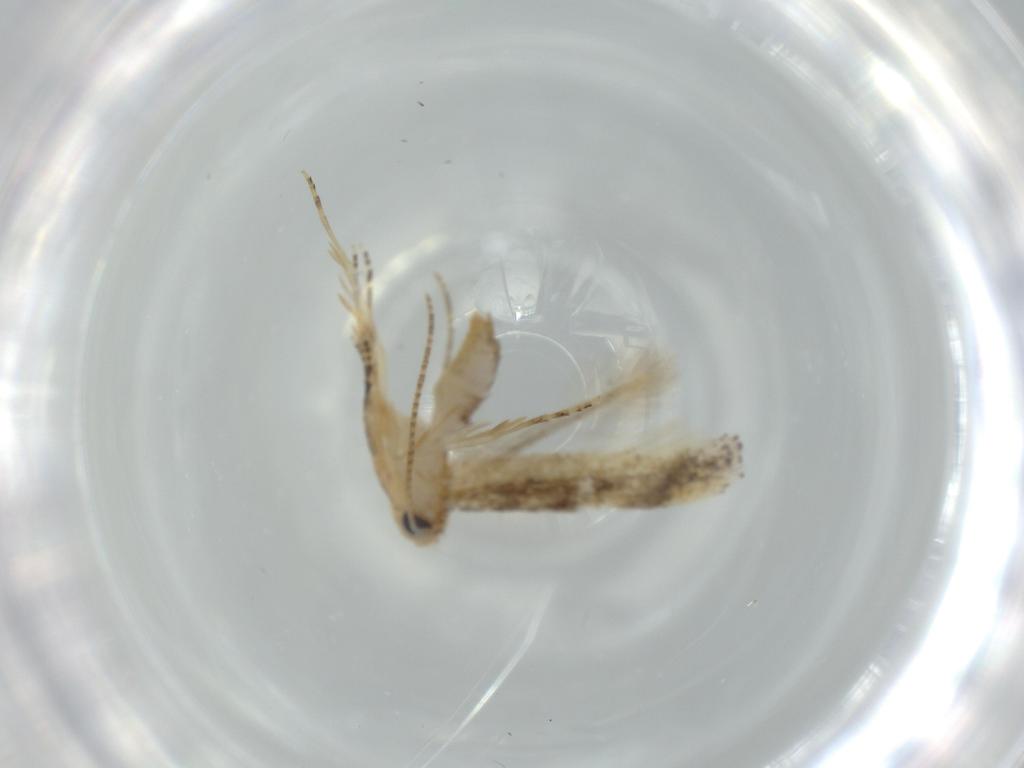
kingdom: Animalia
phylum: Arthropoda
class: Insecta
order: Lepidoptera
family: Bucculatricidae
